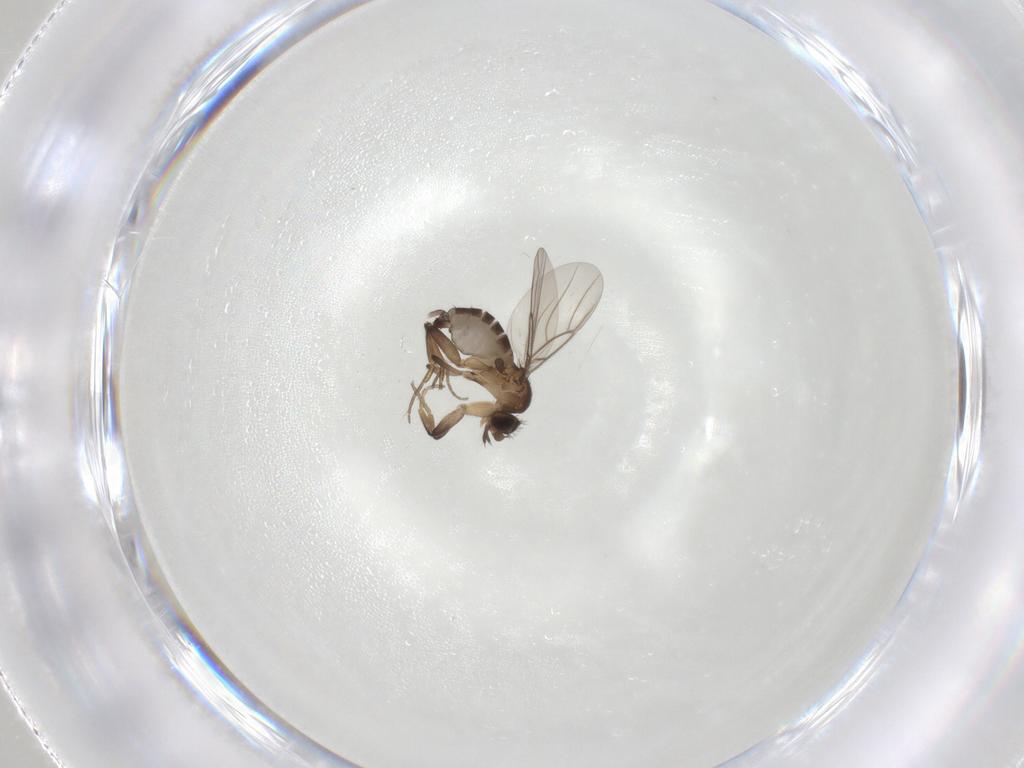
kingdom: Animalia
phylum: Arthropoda
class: Insecta
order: Diptera
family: Phoridae
